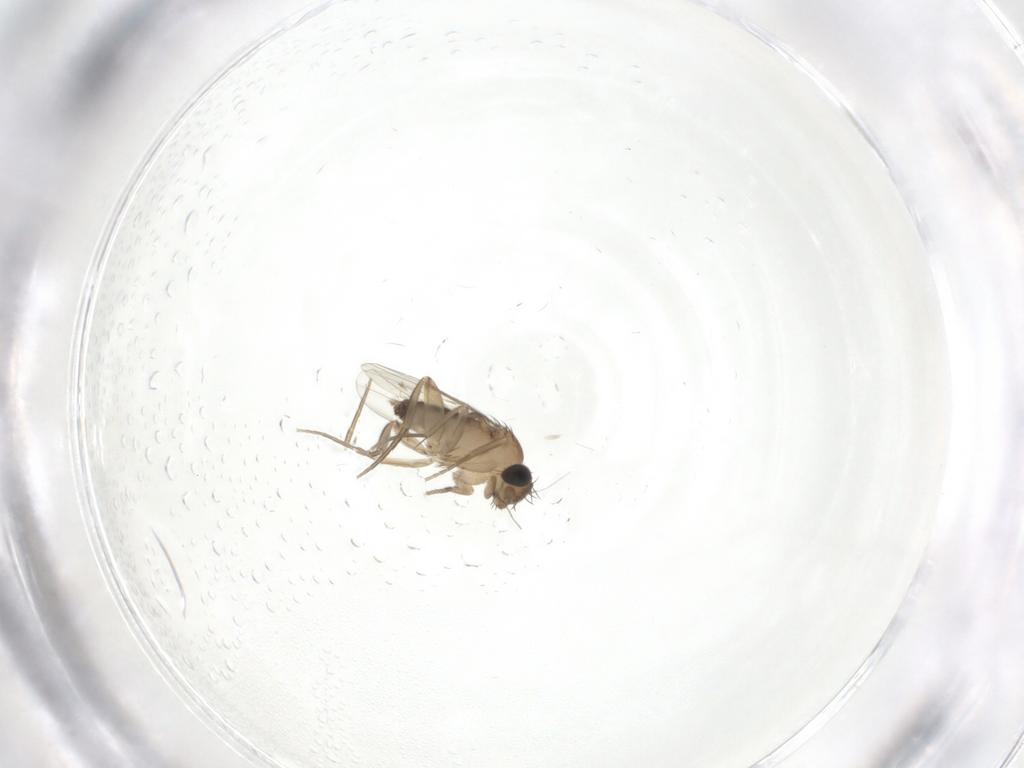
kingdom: Animalia
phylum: Arthropoda
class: Insecta
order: Diptera
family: Phoridae
